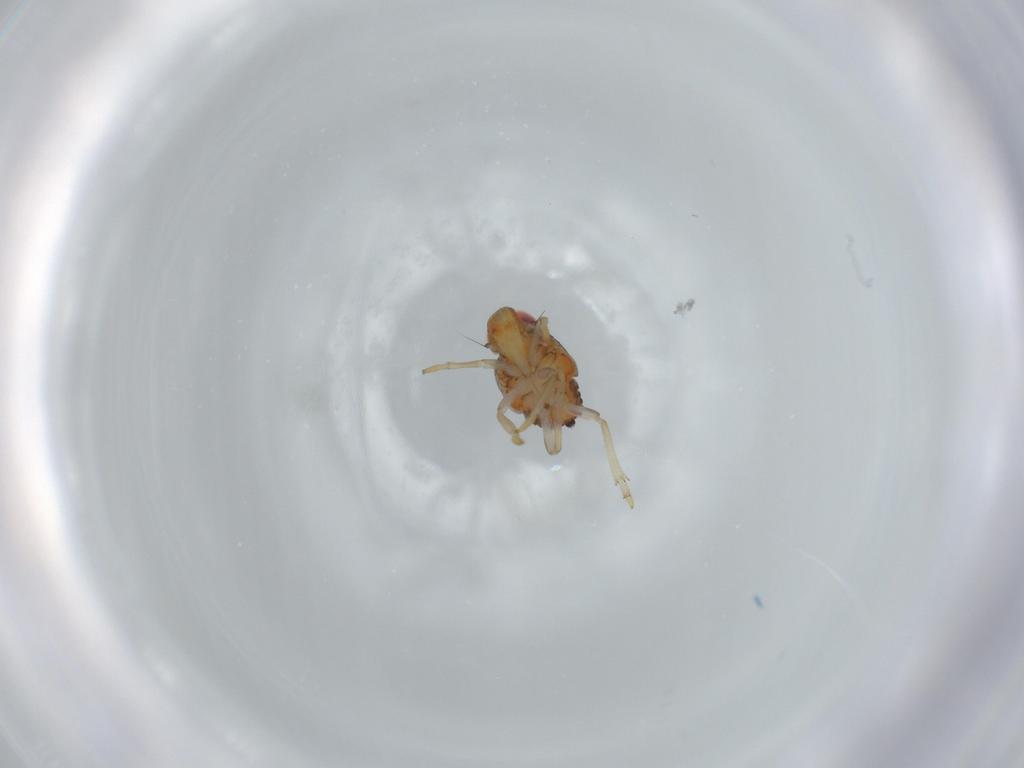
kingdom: Animalia
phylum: Arthropoda
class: Insecta
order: Hemiptera
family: Issidae
